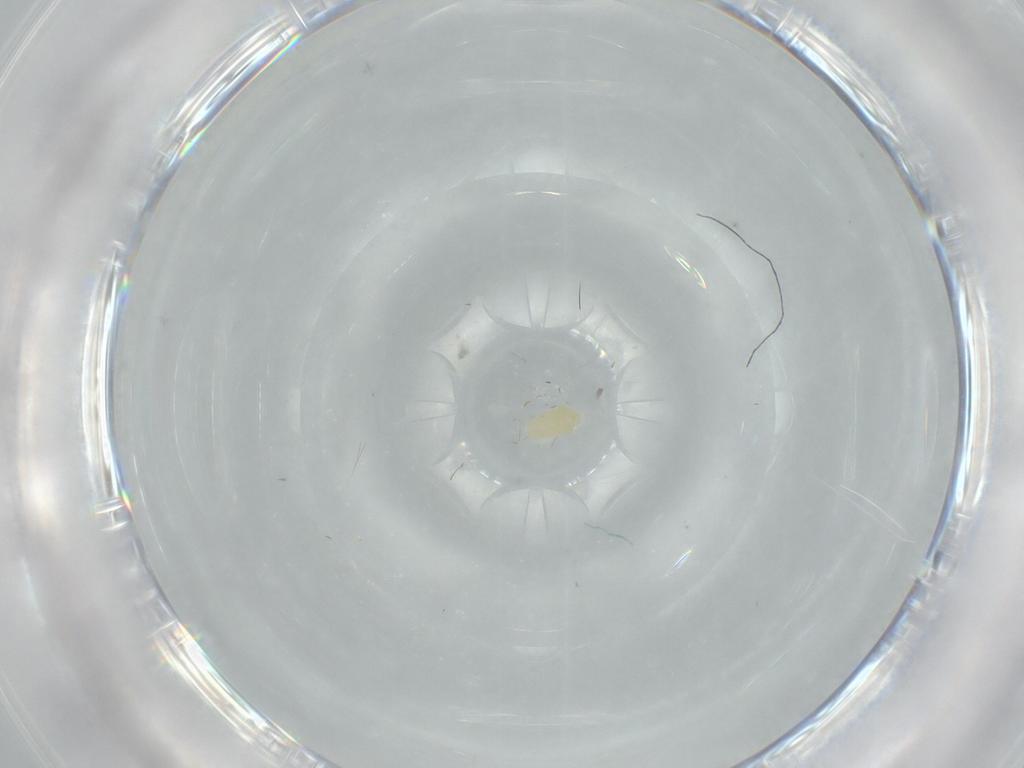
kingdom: Animalia
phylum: Arthropoda
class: Arachnida
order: Trombidiformes
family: Eupodidae
